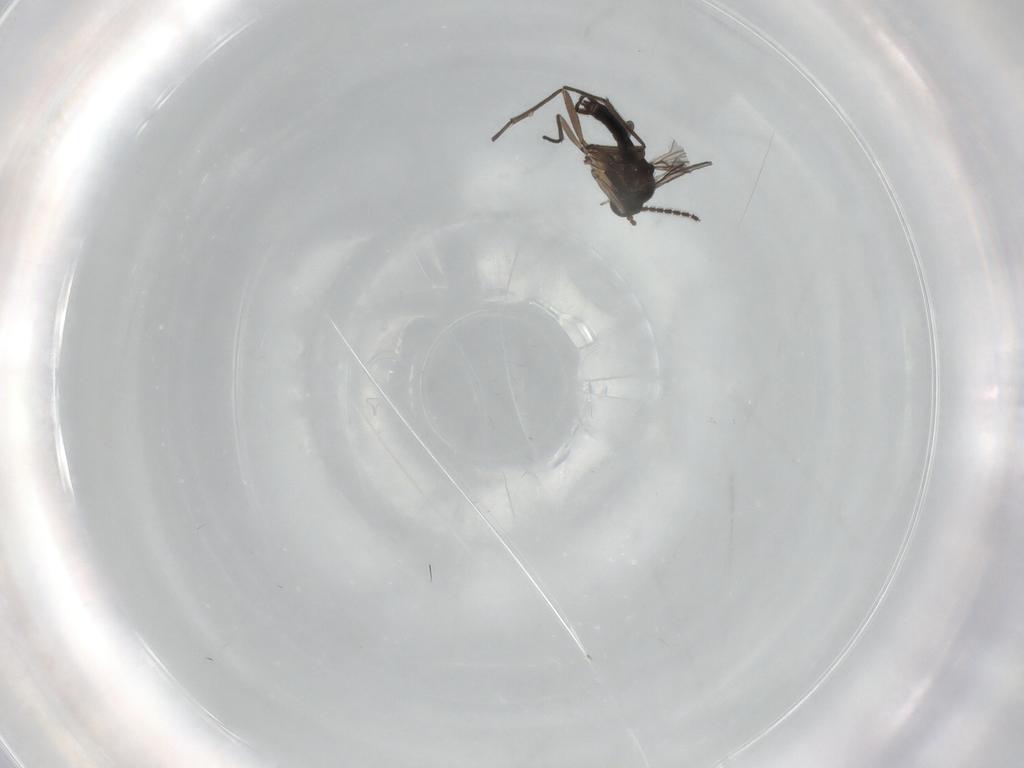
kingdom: Animalia
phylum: Arthropoda
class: Insecta
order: Diptera
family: Sciaridae
